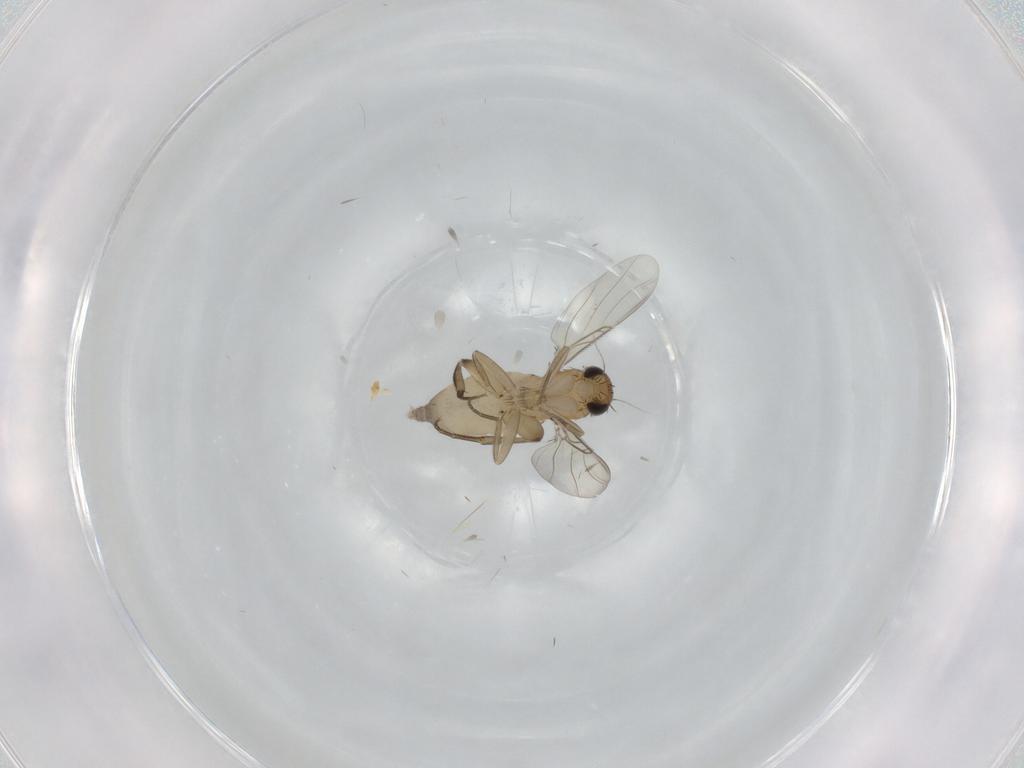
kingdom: Animalia
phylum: Arthropoda
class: Insecta
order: Diptera
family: Phoridae
